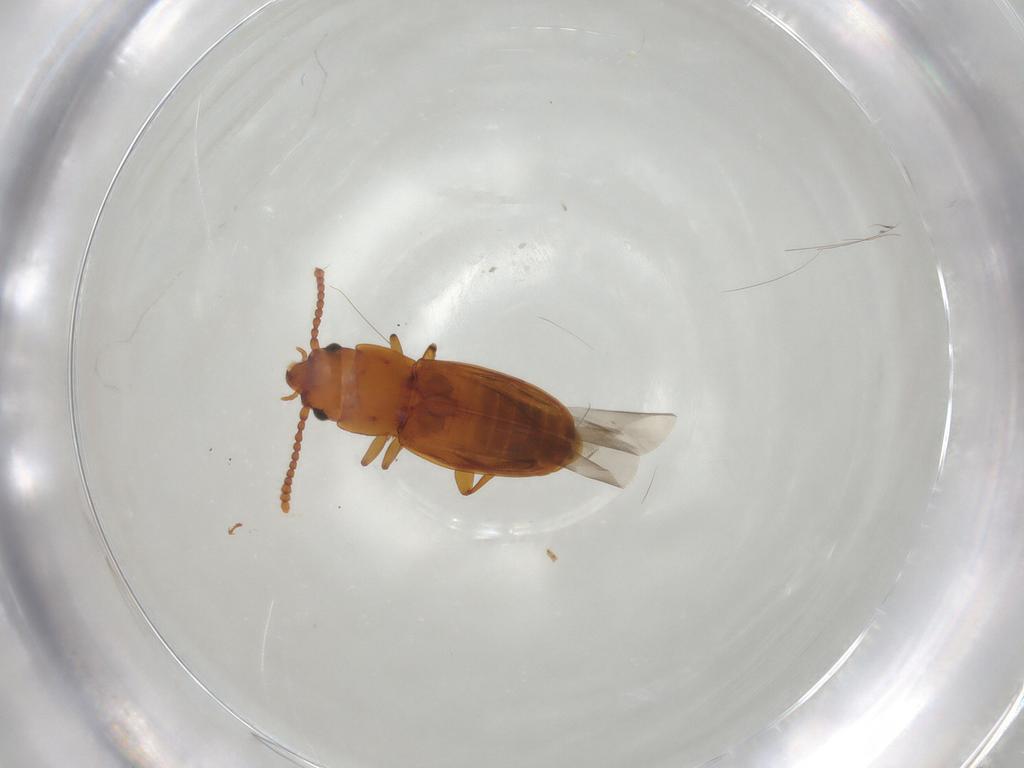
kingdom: Animalia
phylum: Arthropoda
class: Insecta
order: Coleoptera
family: Laemophloeidae
